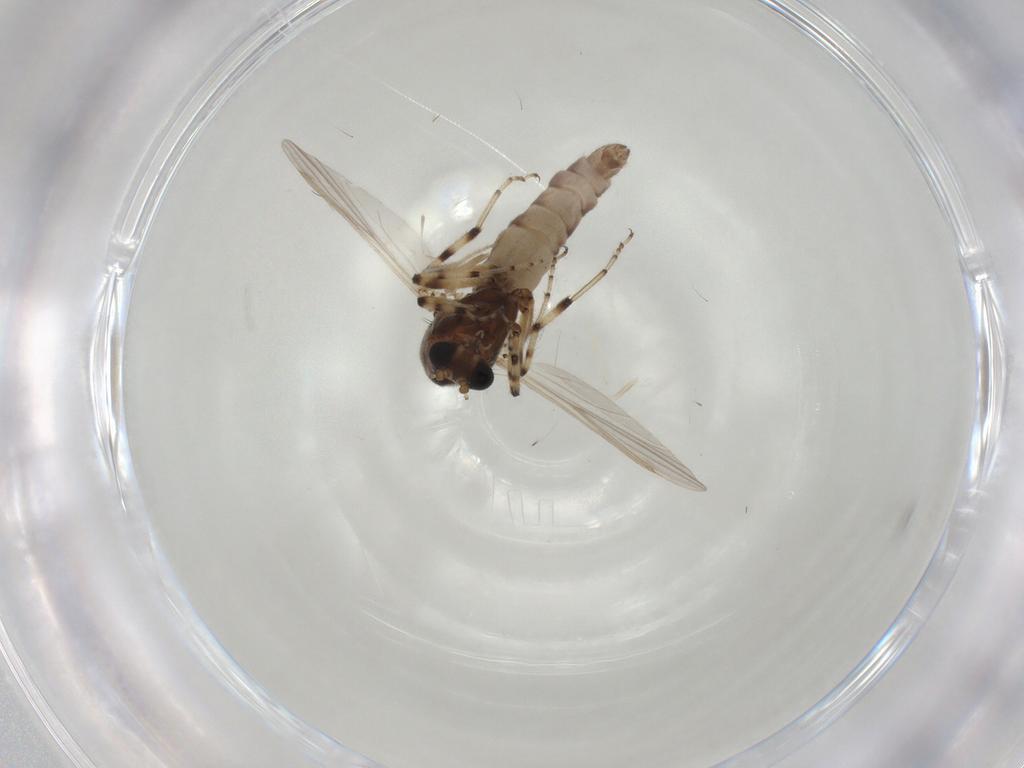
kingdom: Animalia
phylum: Arthropoda
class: Insecta
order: Diptera
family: Ceratopogonidae
